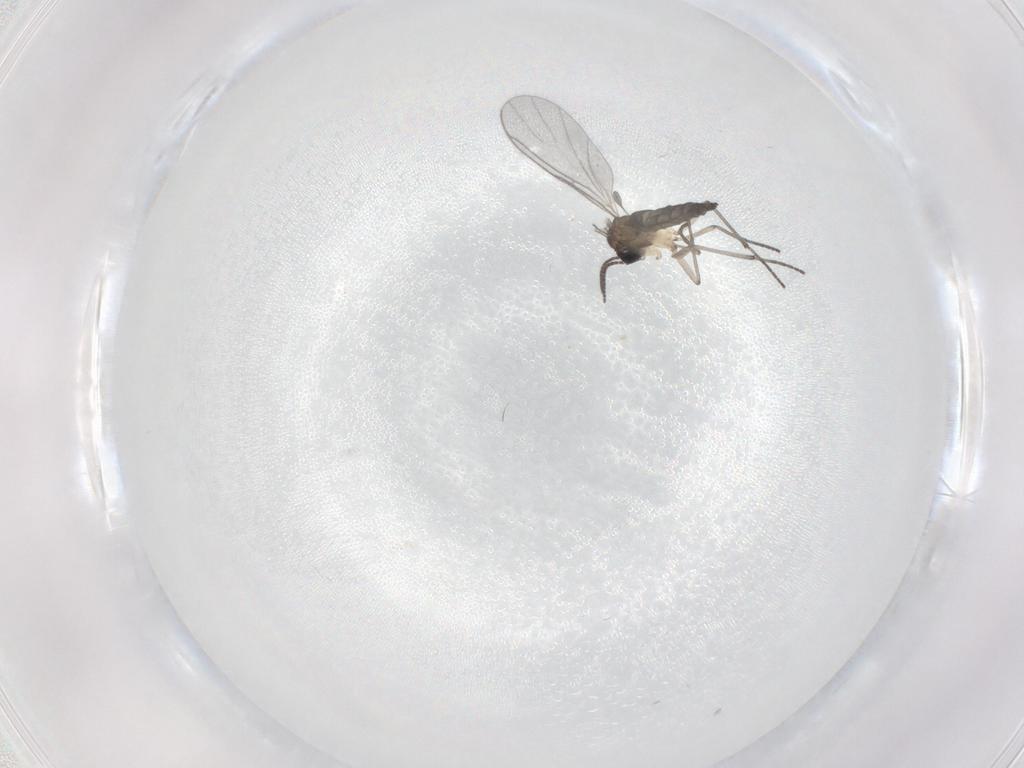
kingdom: Animalia
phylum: Arthropoda
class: Insecta
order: Diptera
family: Sciaridae
